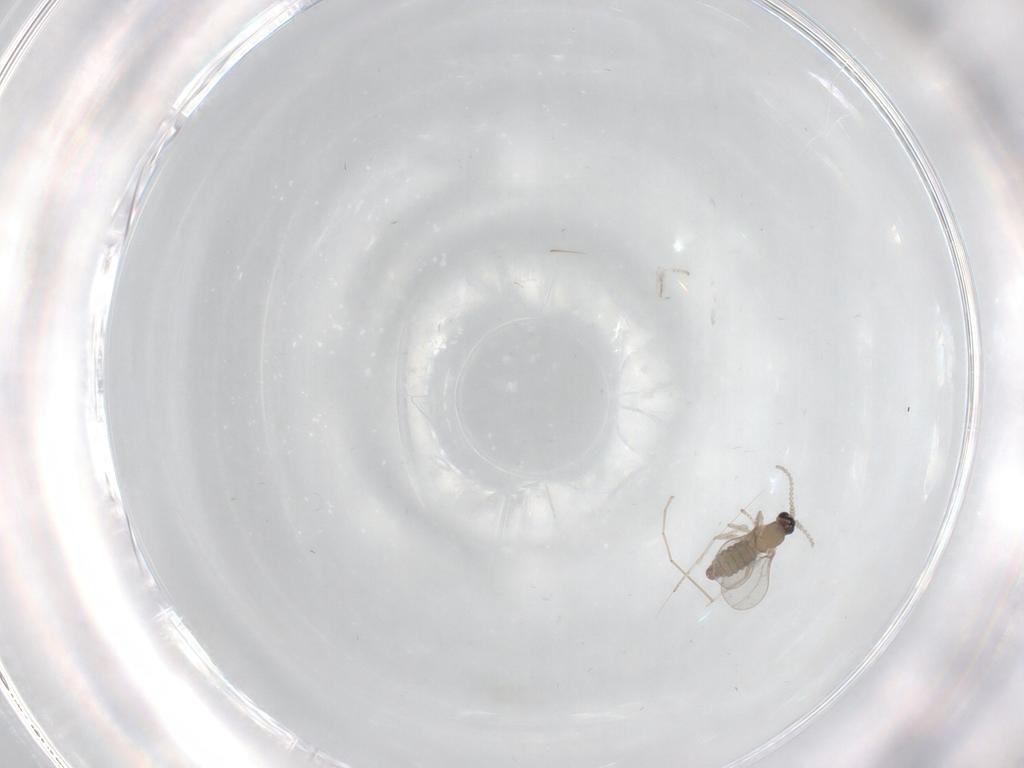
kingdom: Animalia
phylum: Arthropoda
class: Insecta
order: Diptera
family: Cecidomyiidae
